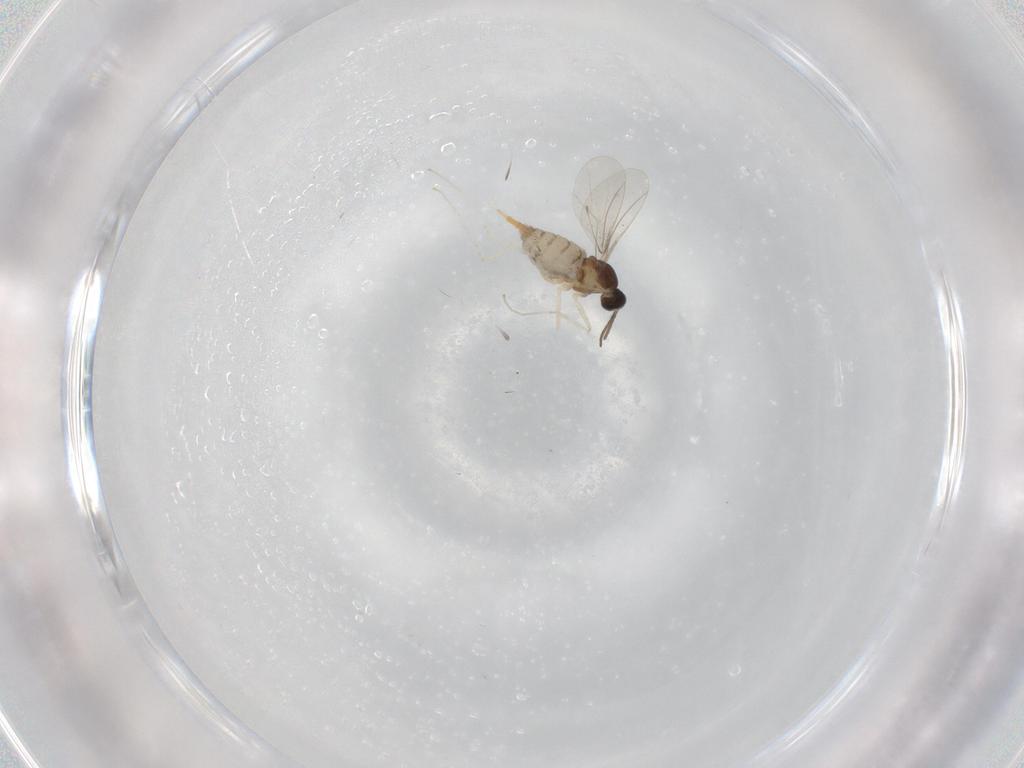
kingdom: Animalia
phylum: Arthropoda
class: Insecta
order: Diptera
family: Cecidomyiidae
